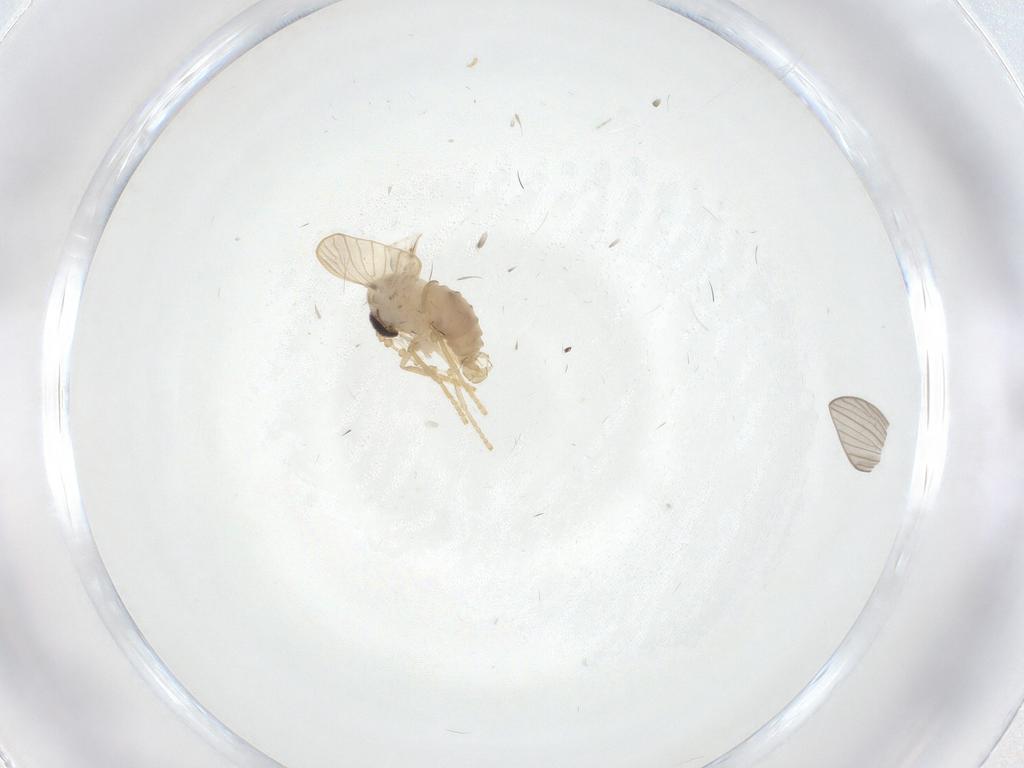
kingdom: Animalia
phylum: Arthropoda
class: Insecta
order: Diptera
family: Psychodidae
